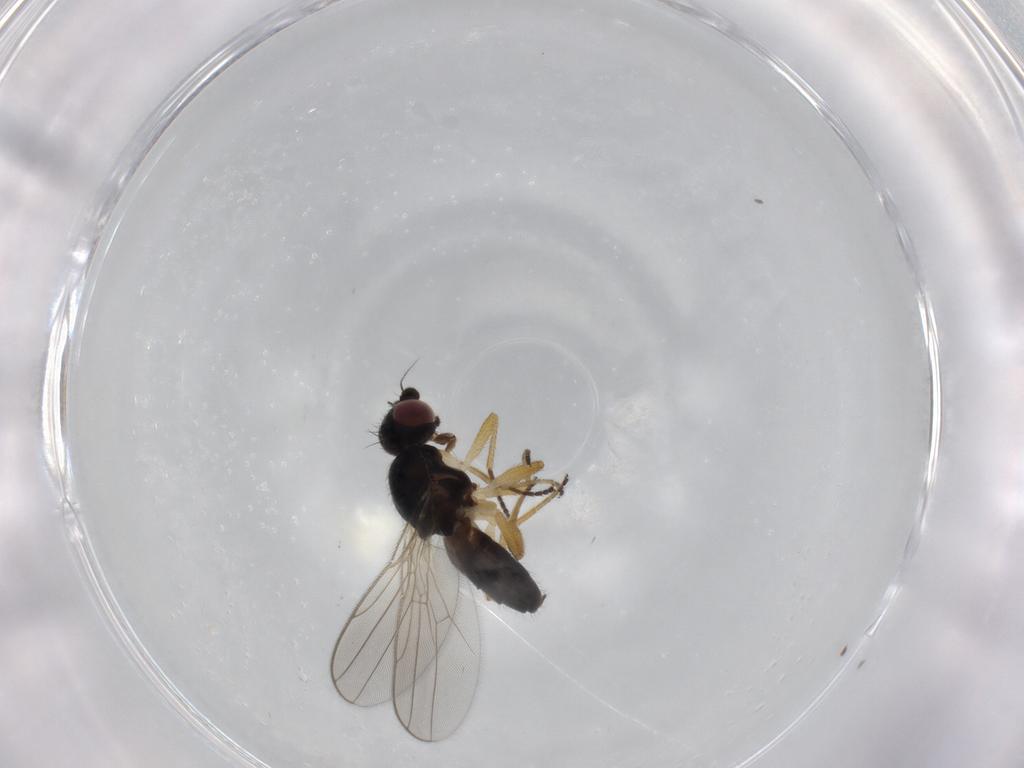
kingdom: Animalia
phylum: Arthropoda
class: Insecta
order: Diptera
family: Chloropidae
